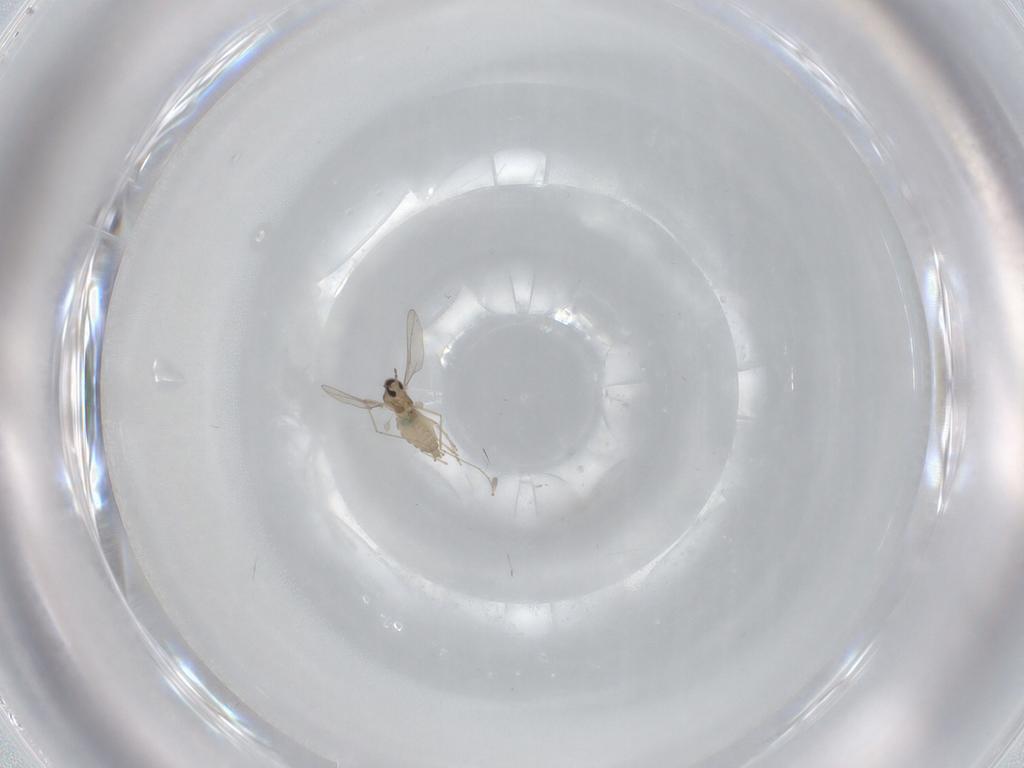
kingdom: Animalia
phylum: Arthropoda
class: Insecta
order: Diptera
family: Cecidomyiidae
